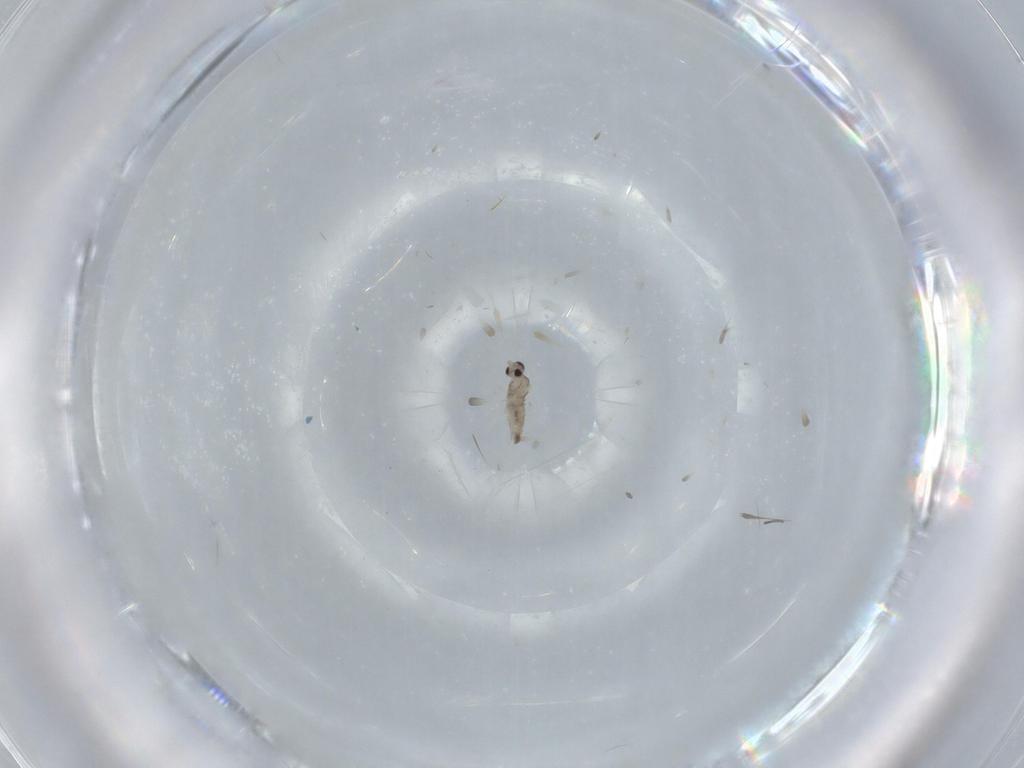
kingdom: Animalia
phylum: Arthropoda
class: Insecta
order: Diptera
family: Cecidomyiidae
